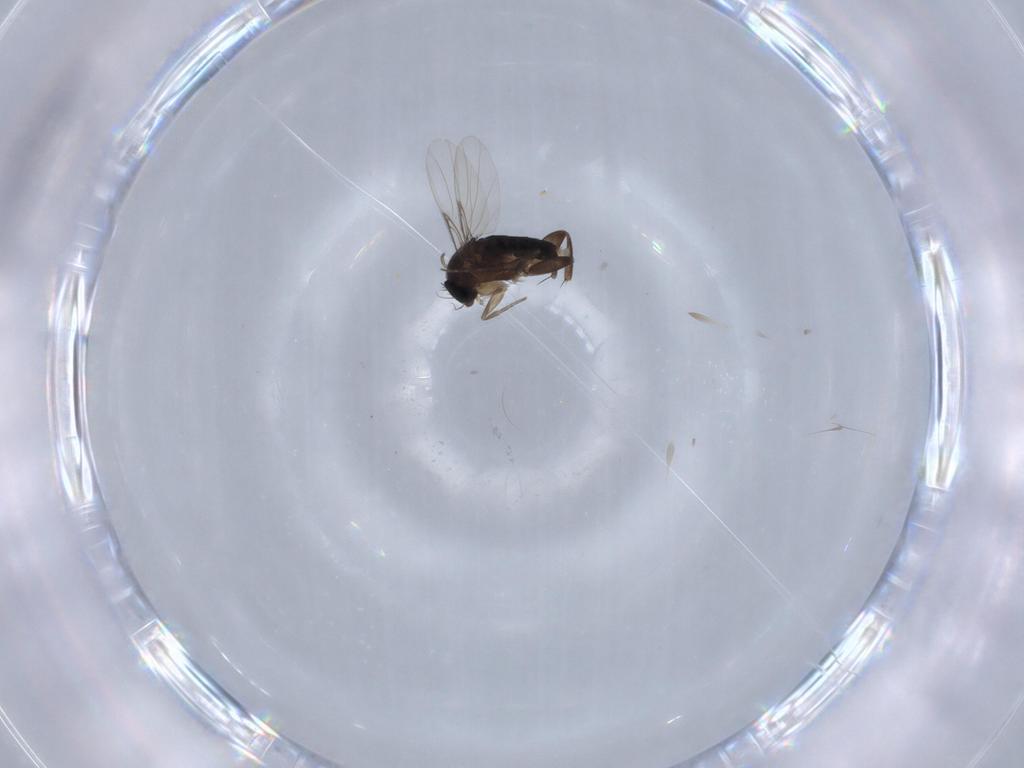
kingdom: Animalia
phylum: Arthropoda
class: Insecta
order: Diptera
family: Phoridae
